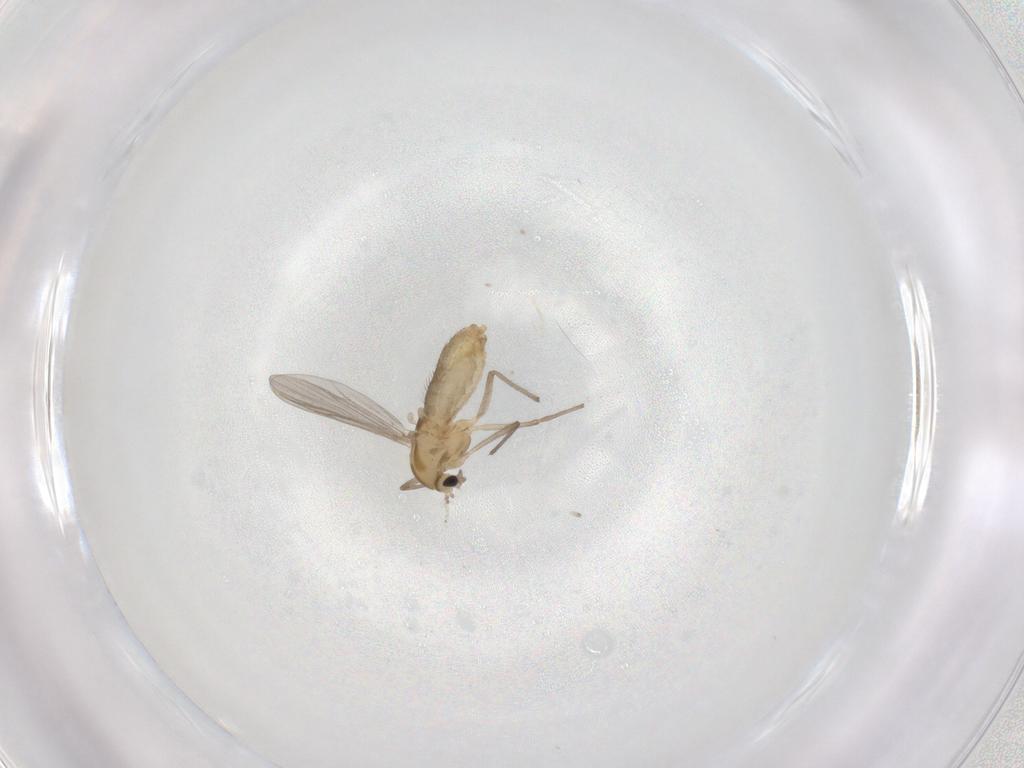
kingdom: Animalia
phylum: Arthropoda
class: Insecta
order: Diptera
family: Chironomidae
